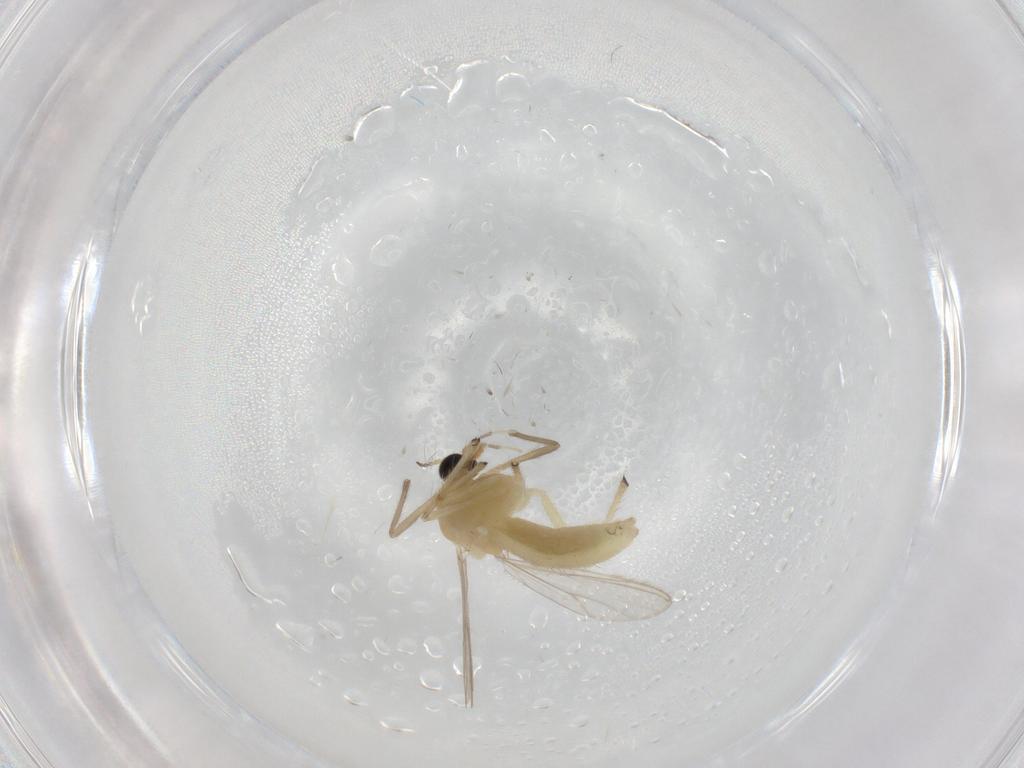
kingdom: Animalia
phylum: Arthropoda
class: Insecta
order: Diptera
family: Chironomidae
